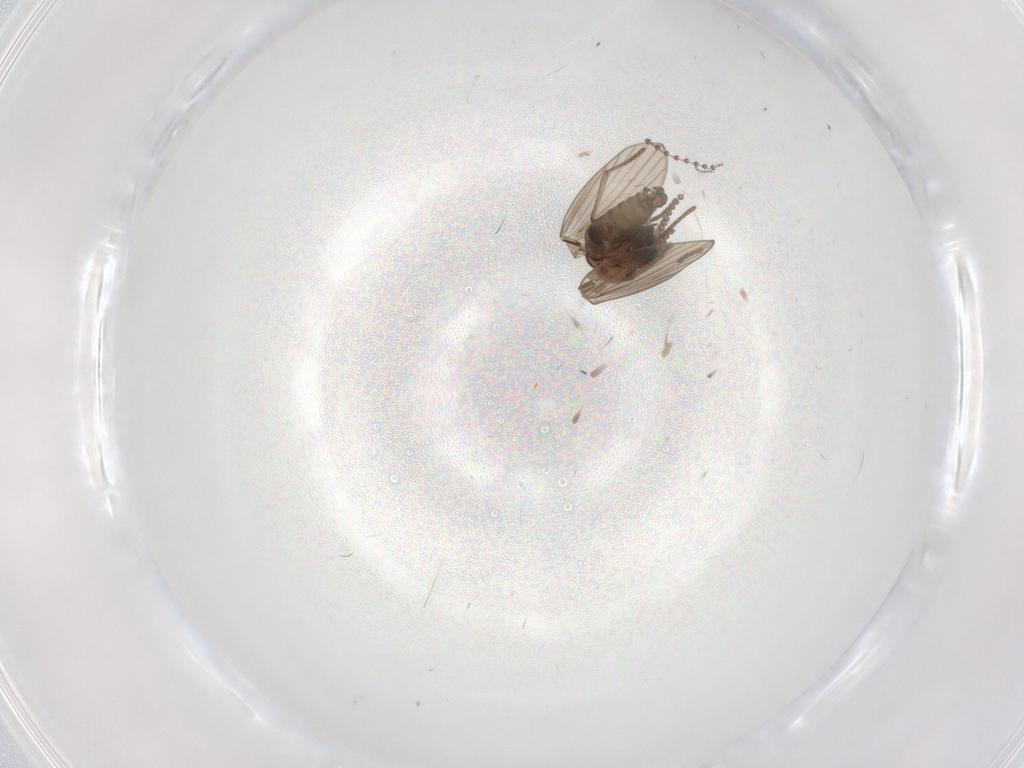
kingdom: Animalia
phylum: Arthropoda
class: Insecta
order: Diptera
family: Psychodidae
